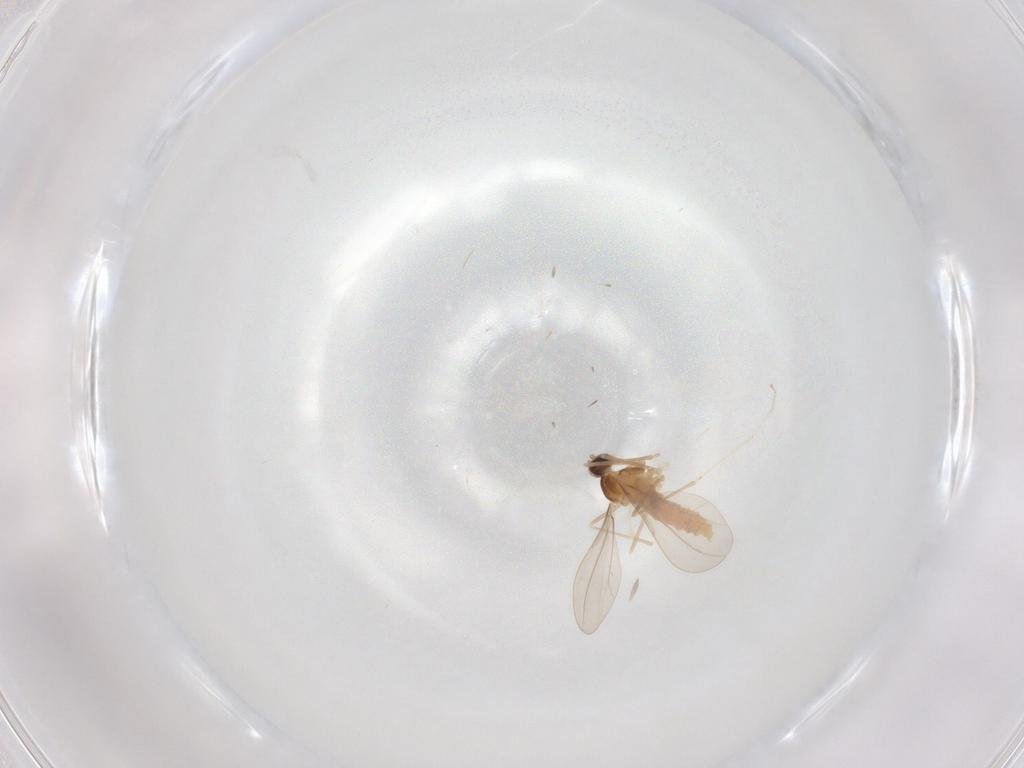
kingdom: Animalia
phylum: Arthropoda
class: Insecta
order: Diptera
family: Cecidomyiidae
